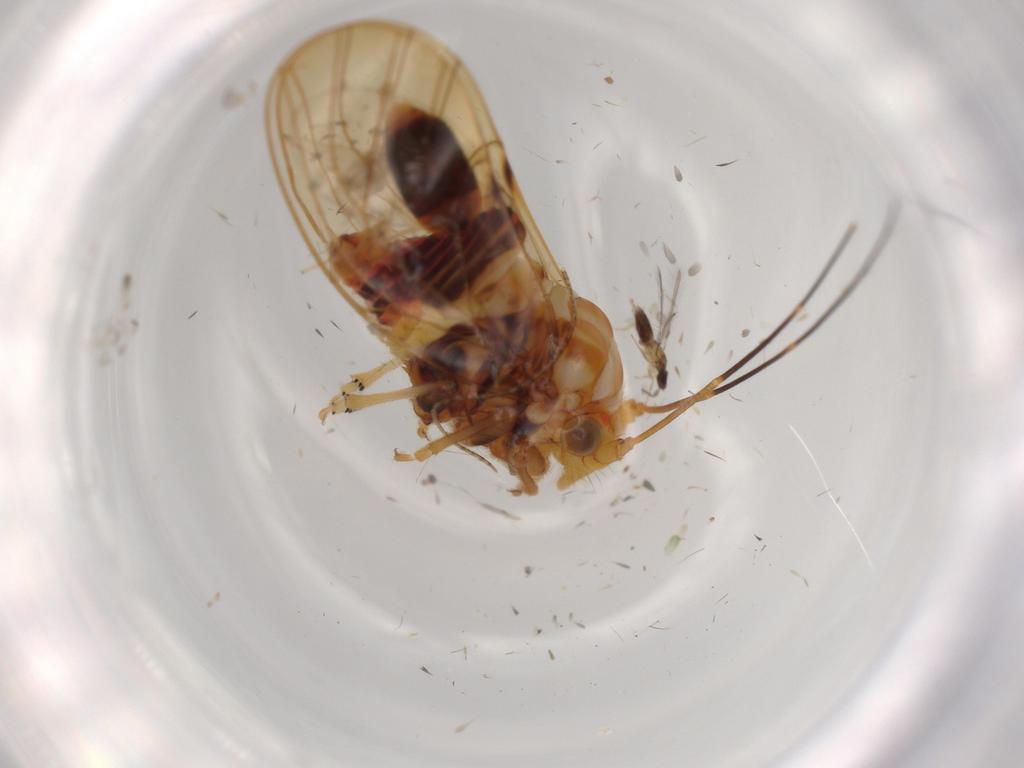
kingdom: Animalia
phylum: Arthropoda
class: Insecta
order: Hemiptera
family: Psyllidae
